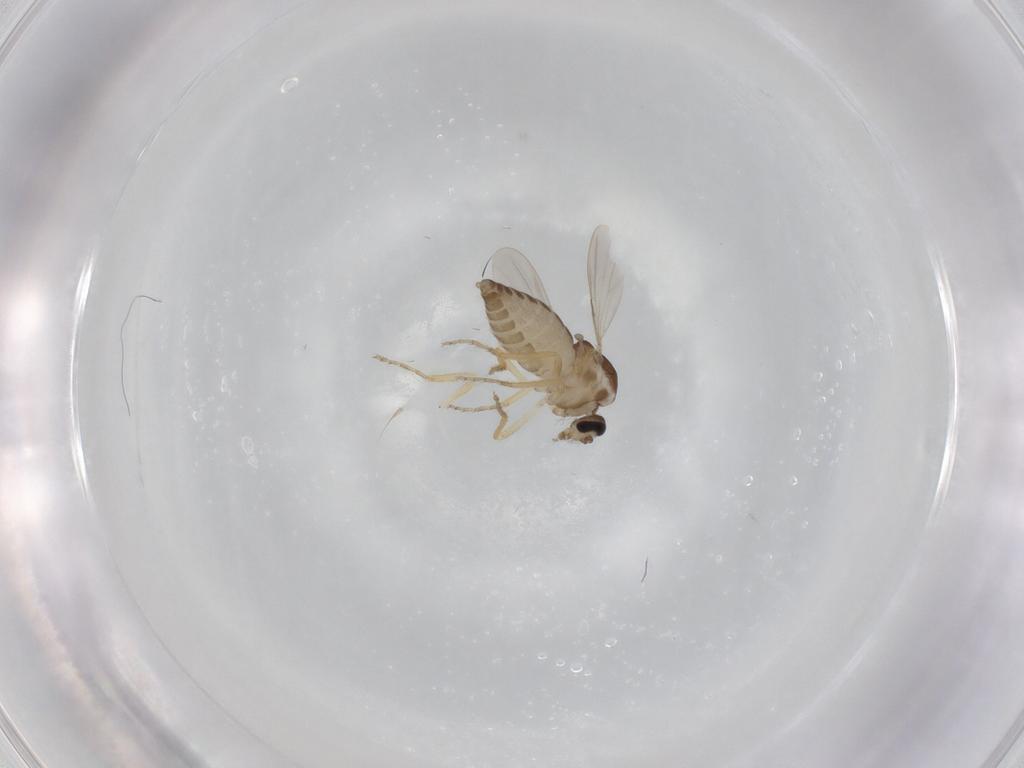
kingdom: Animalia
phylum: Arthropoda
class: Insecta
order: Diptera
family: Ceratopogonidae
